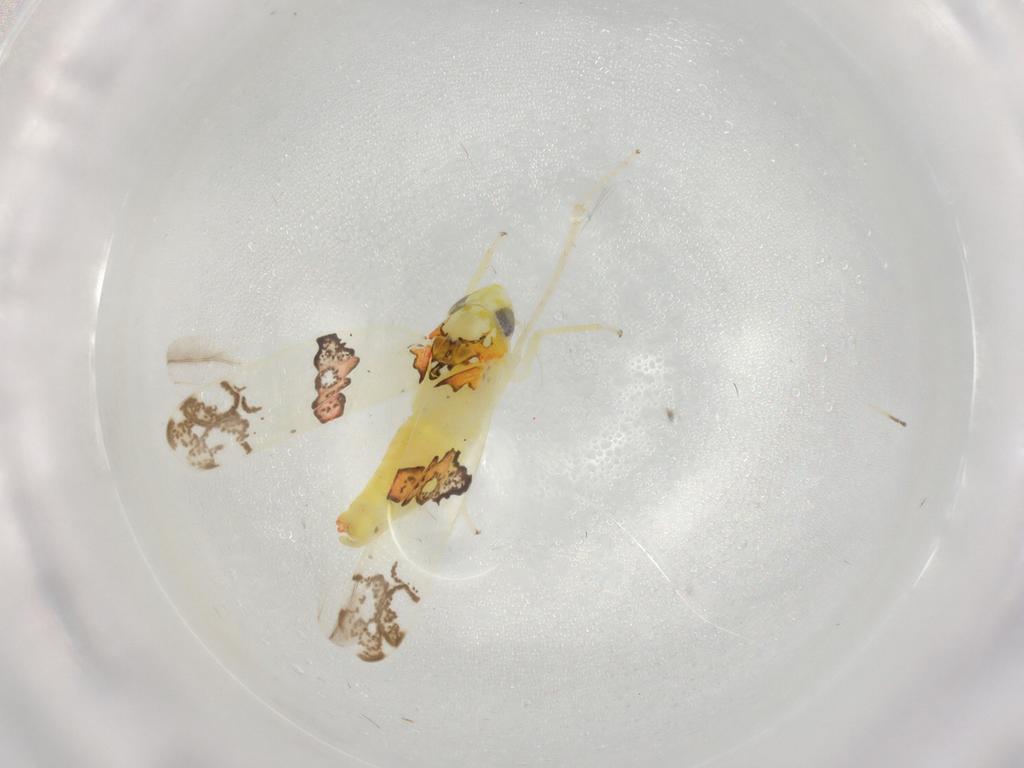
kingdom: Animalia
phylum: Arthropoda
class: Insecta
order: Hemiptera
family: Cicadellidae
